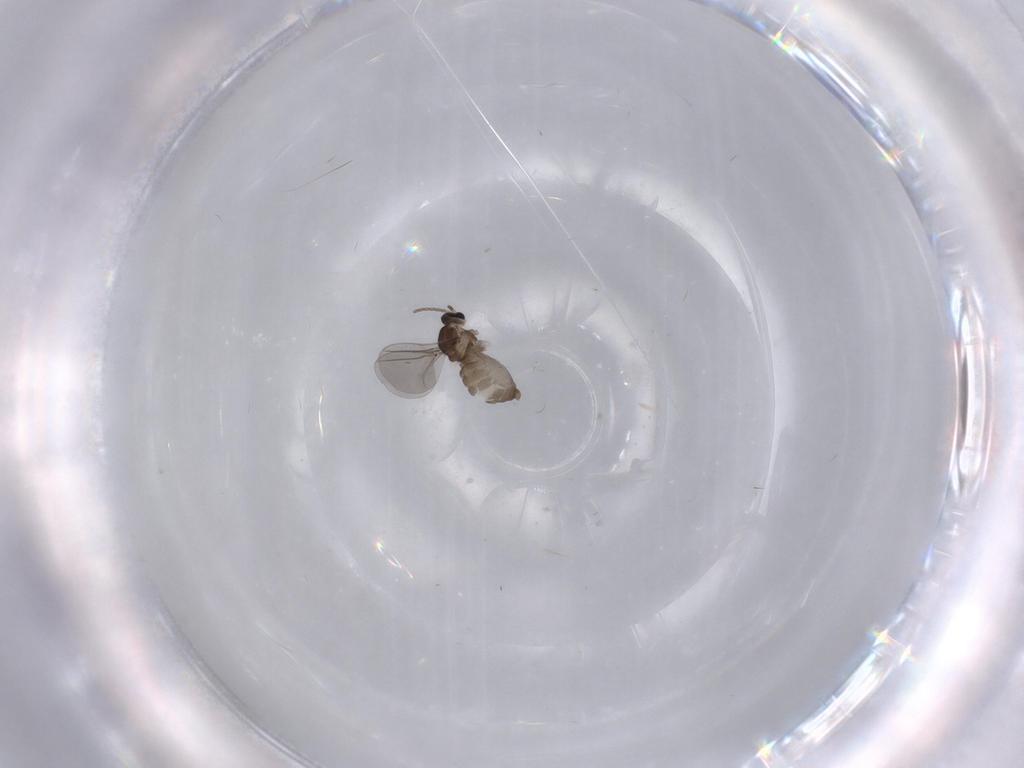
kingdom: Animalia
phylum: Arthropoda
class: Insecta
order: Diptera
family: Cecidomyiidae
